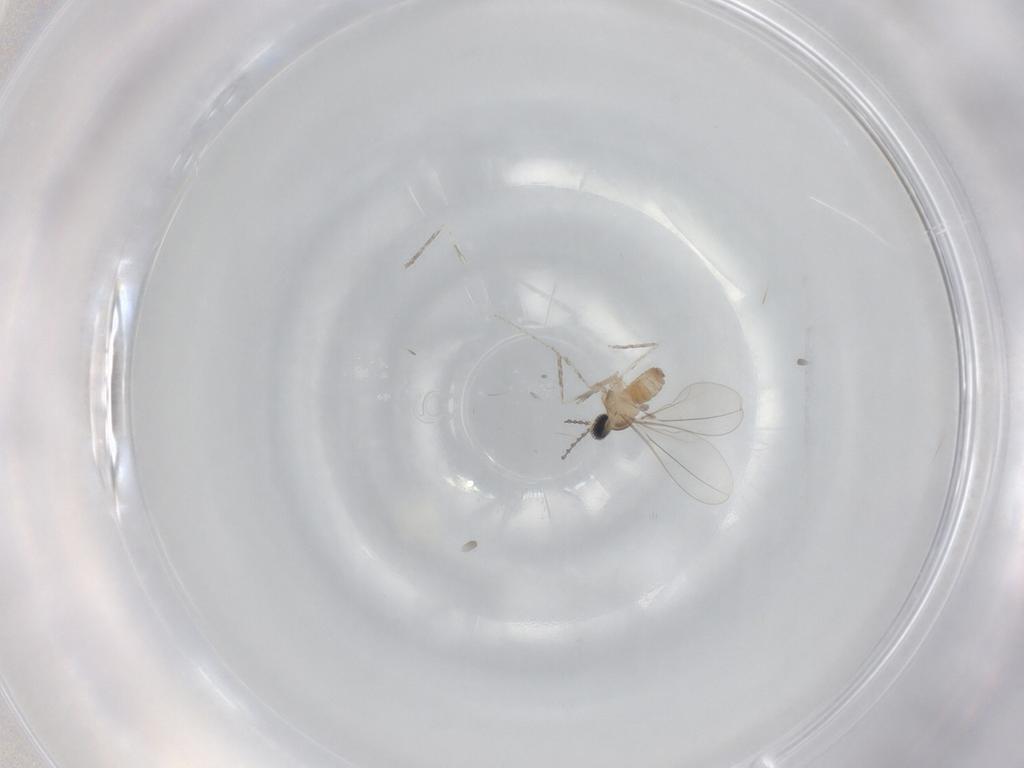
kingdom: Animalia
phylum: Arthropoda
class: Insecta
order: Diptera
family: Cecidomyiidae
